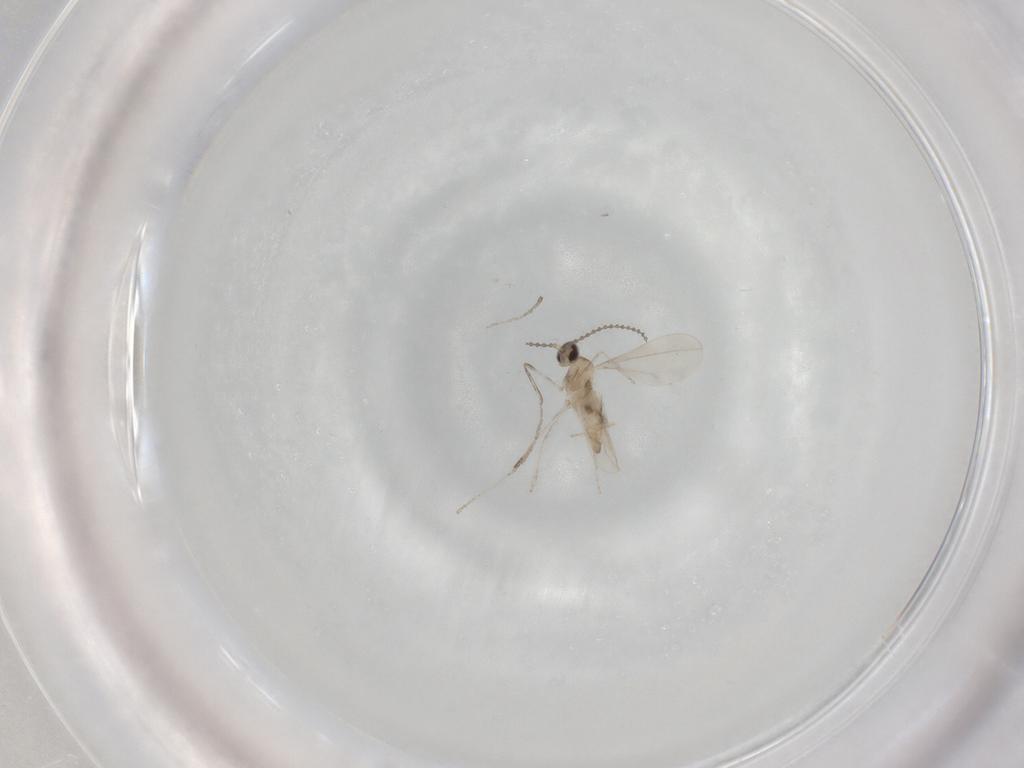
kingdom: Animalia
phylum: Arthropoda
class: Insecta
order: Diptera
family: Cecidomyiidae
